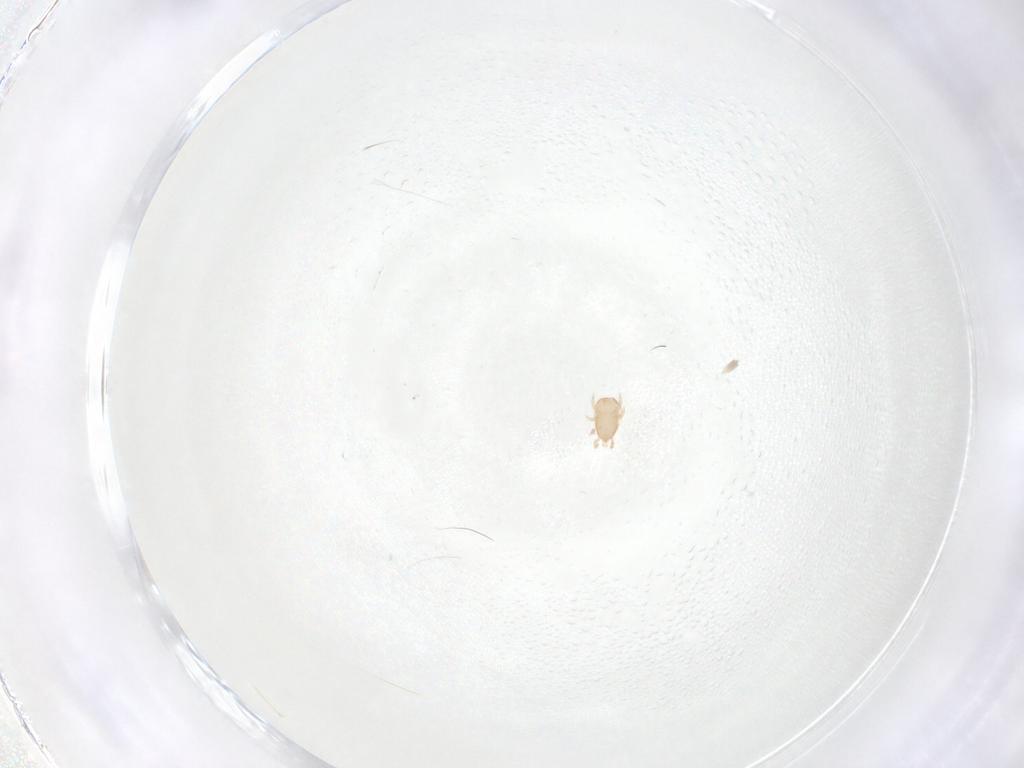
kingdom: Animalia
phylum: Arthropoda
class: Arachnida
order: Mesostigmata
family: Ascidae
